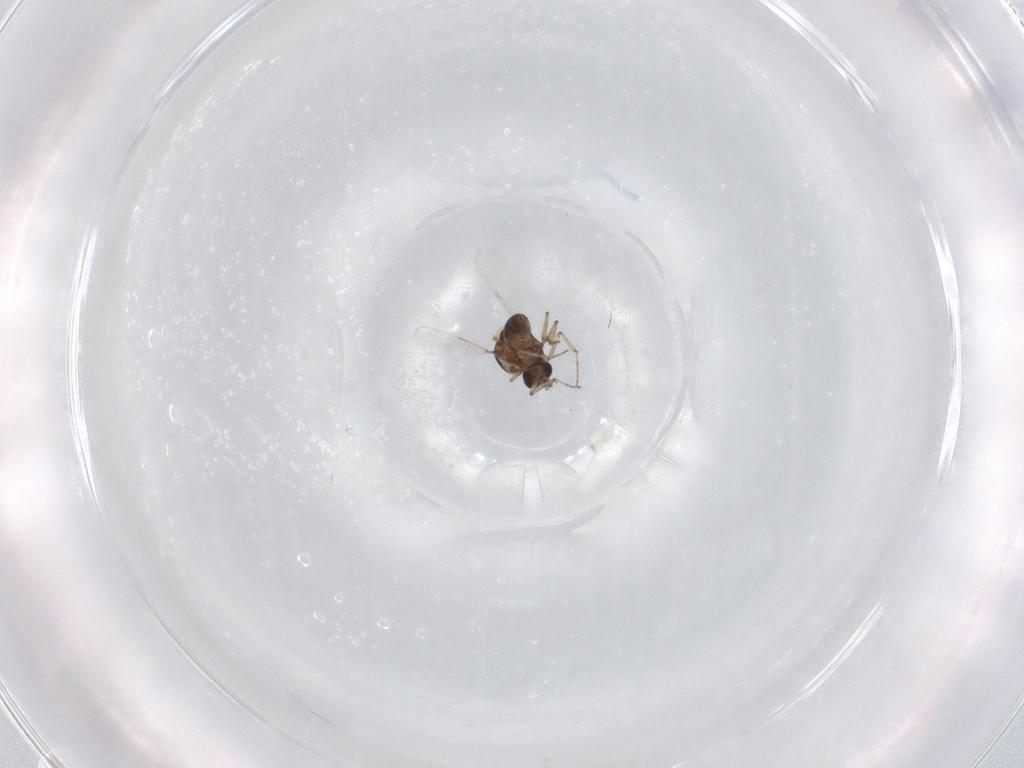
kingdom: Animalia
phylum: Arthropoda
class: Insecta
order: Diptera
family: Ceratopogonidae
